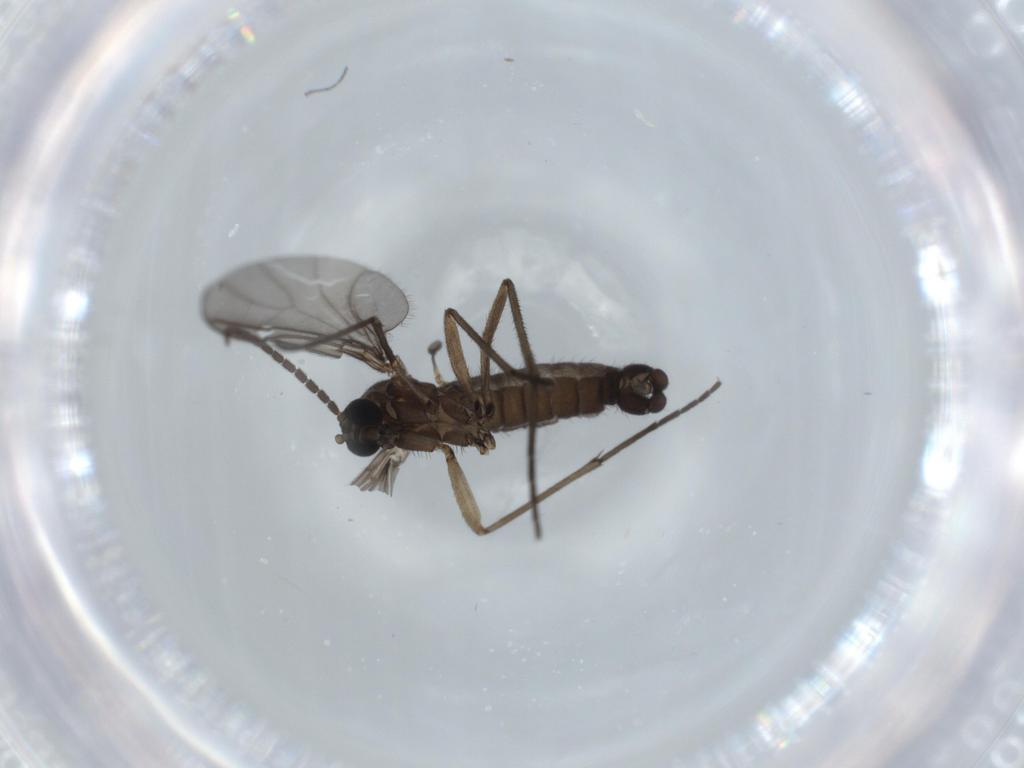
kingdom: Animalia
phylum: Arthropoda
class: Insecta
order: Diptera
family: Sciaridae
